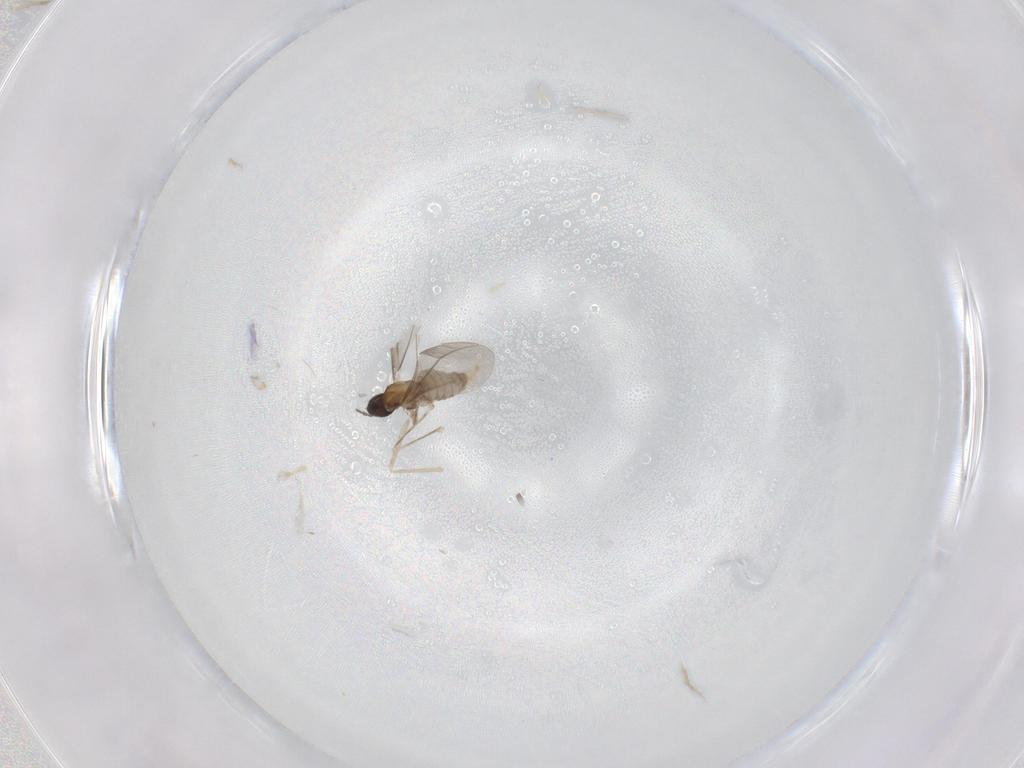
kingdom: Animalia
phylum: Arthropoda
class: Insecta
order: Diptera
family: Cecidomyiidae
